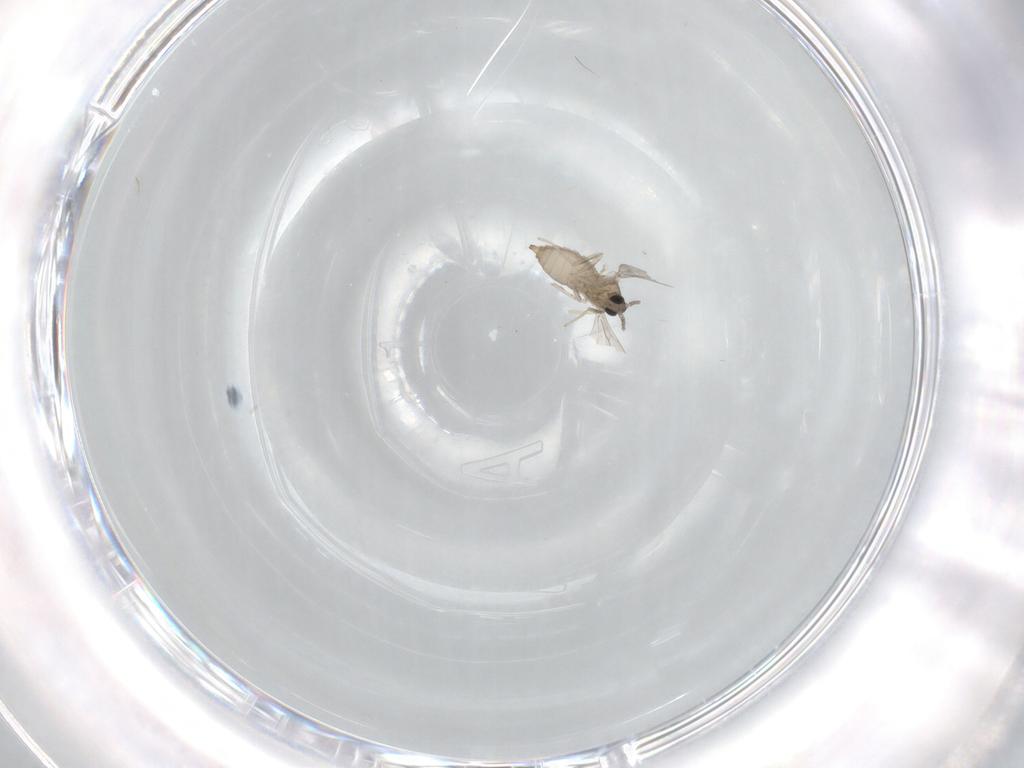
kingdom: Animalia
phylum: Arthropoda
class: Insecta
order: Diptera
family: Cecidomyiidae
